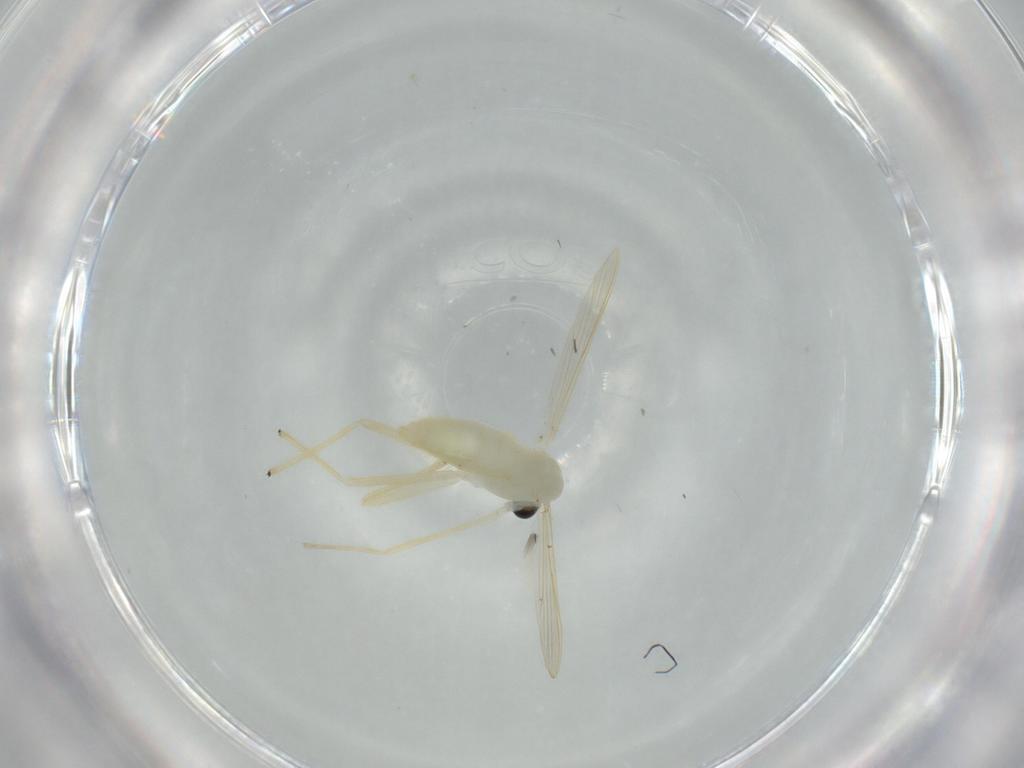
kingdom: Animalia
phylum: Arthropoda
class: Insecta
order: Diptera
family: Chironomidae
